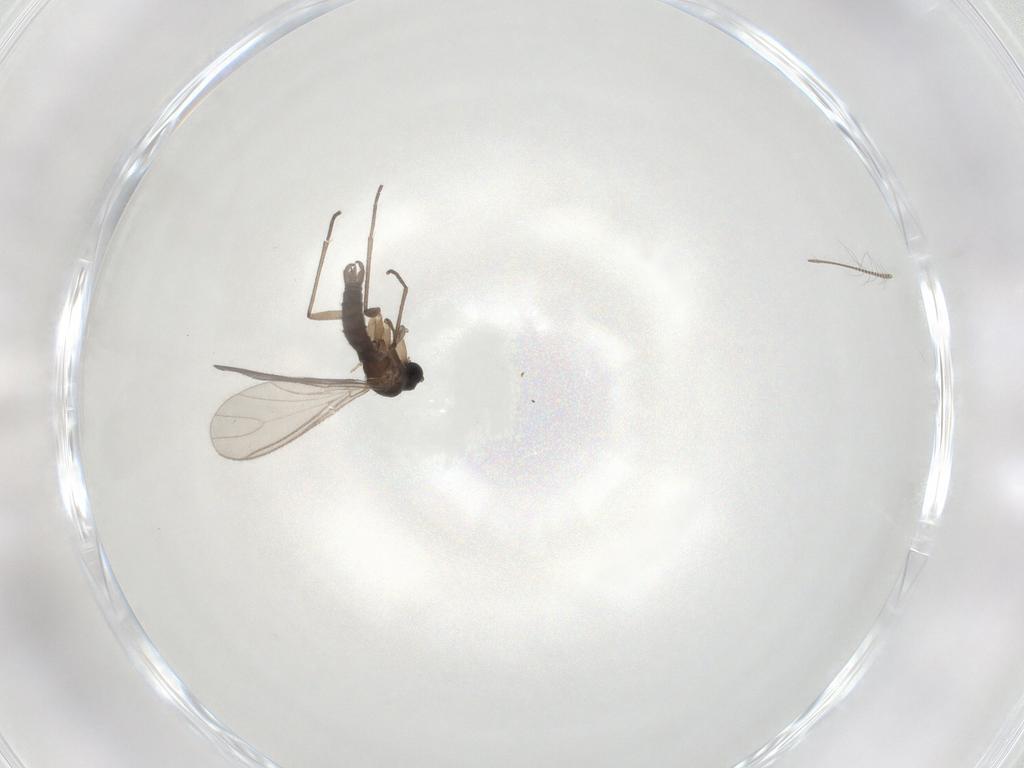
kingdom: Animalia
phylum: Arthropoda
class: Insecta
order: Diptera
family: Sciaridae
